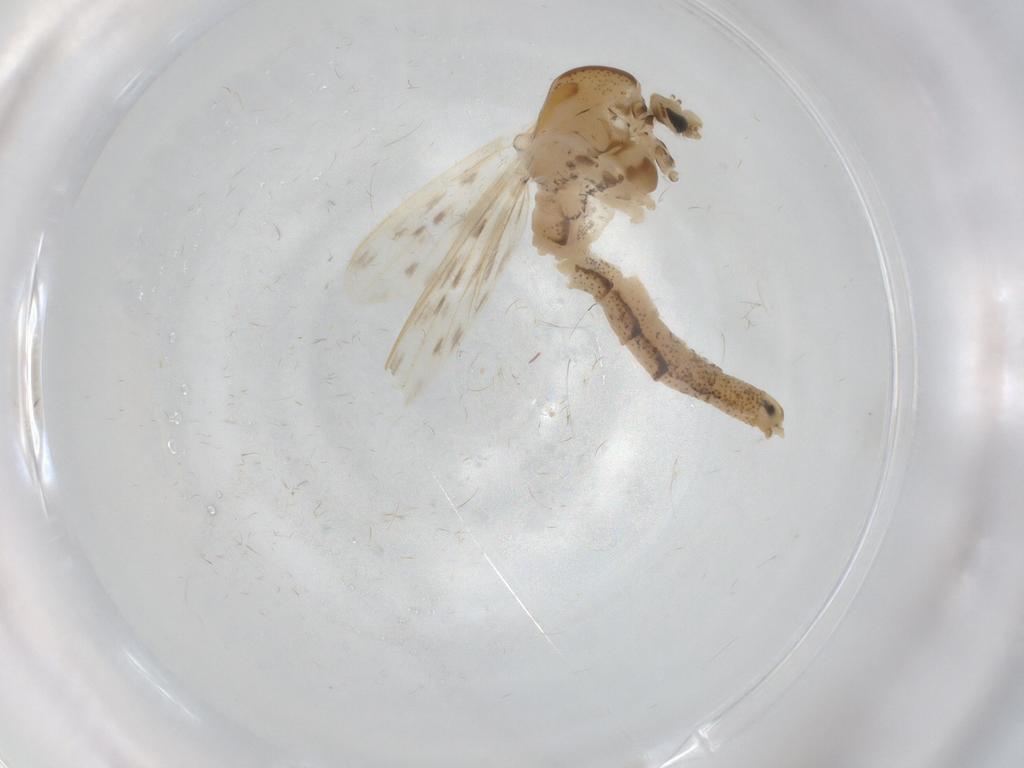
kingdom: Animalia
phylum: Arthropoda
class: Insecta
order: Diptera
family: Chaoboridae
